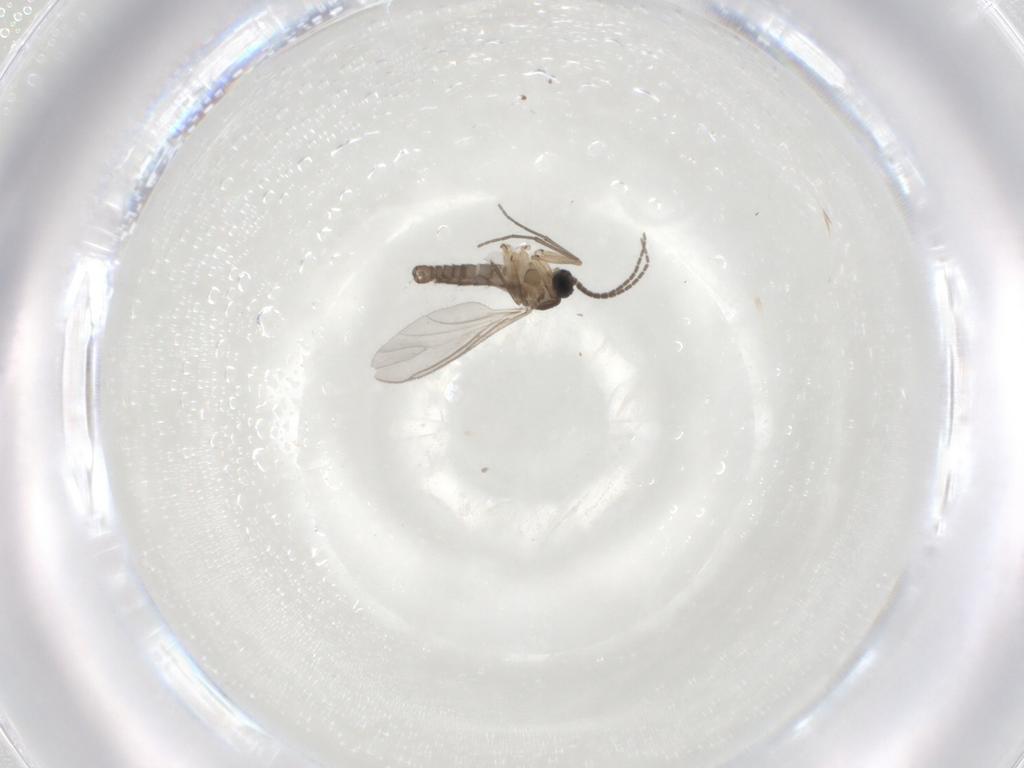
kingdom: Animalia
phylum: Arthropoda
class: Insecta
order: Diptera
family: Sciaridae
